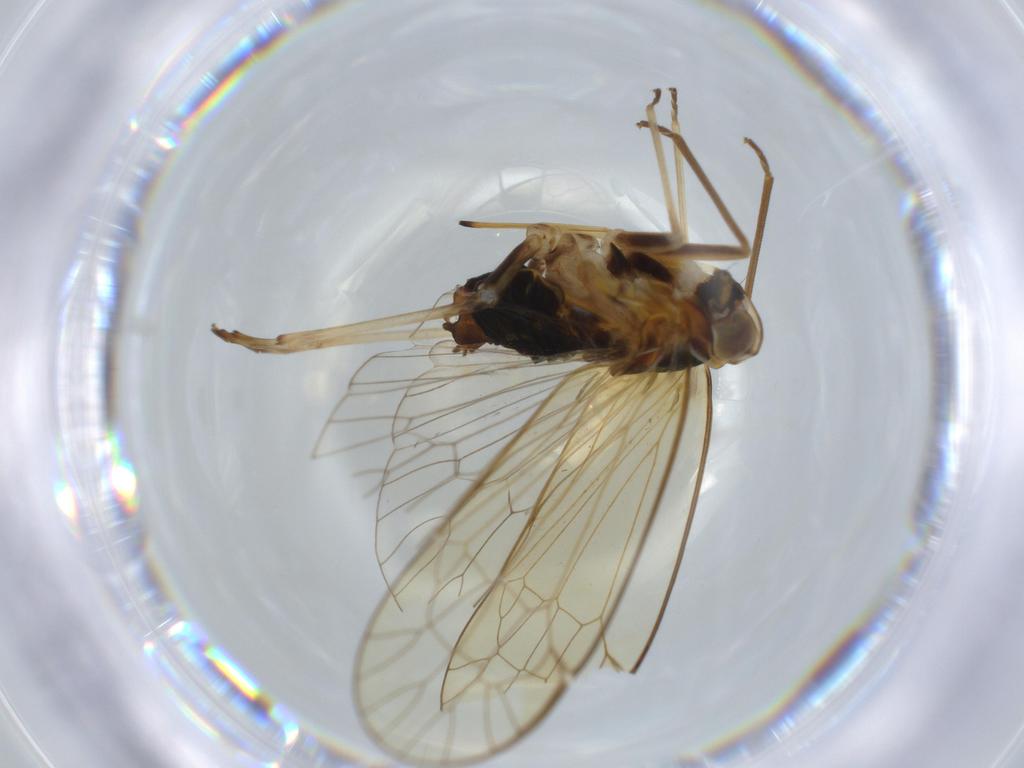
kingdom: Animalia
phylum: Arthropoda
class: Insecta
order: Hemiptera
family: Kinnaridae
